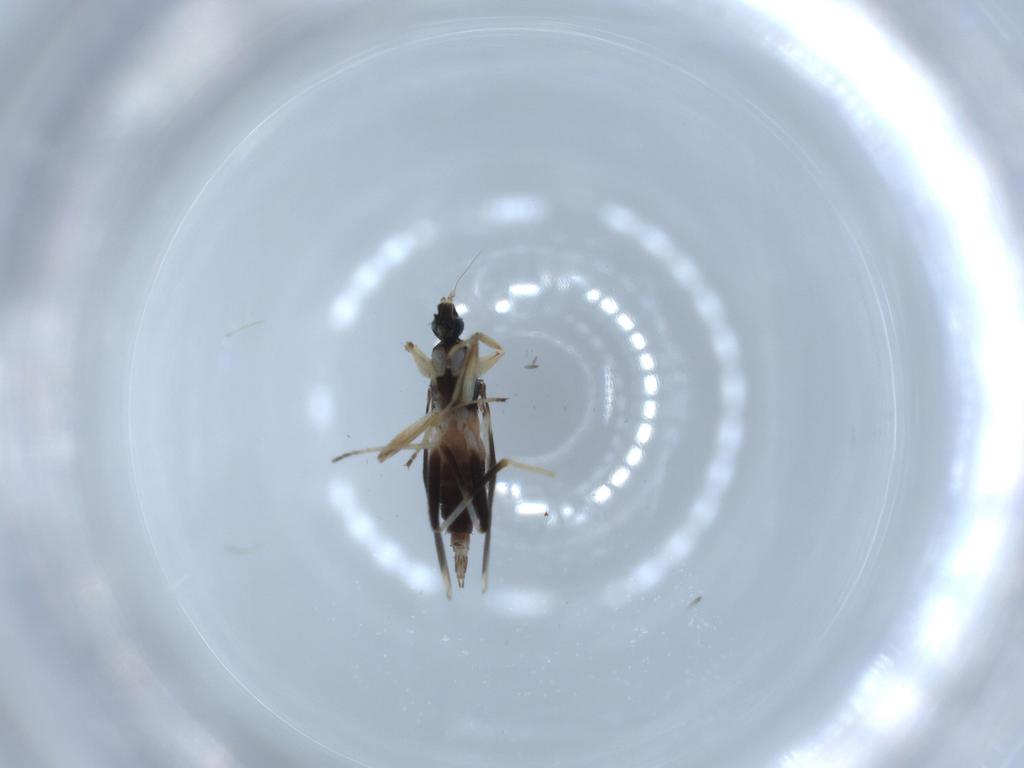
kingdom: Animalia
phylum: Arthropoda
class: Insecta
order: Diptera
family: Hybotidae
